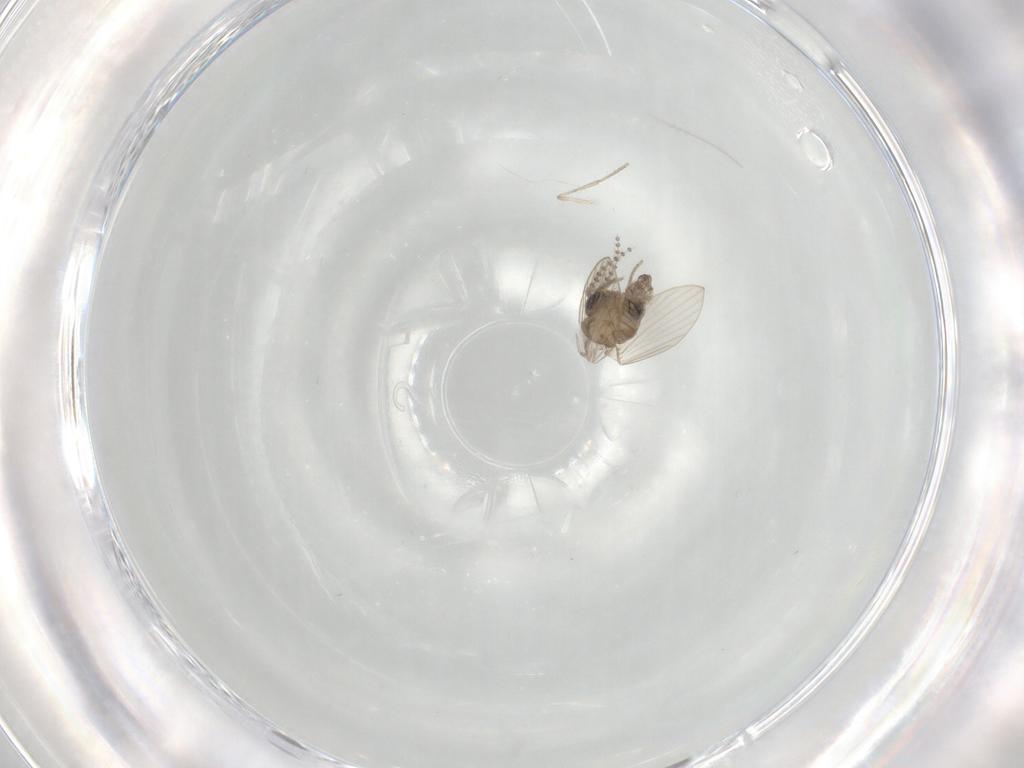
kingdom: Animalia
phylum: Arthropoda
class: Insecta
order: Diptera
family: Psychodidae
